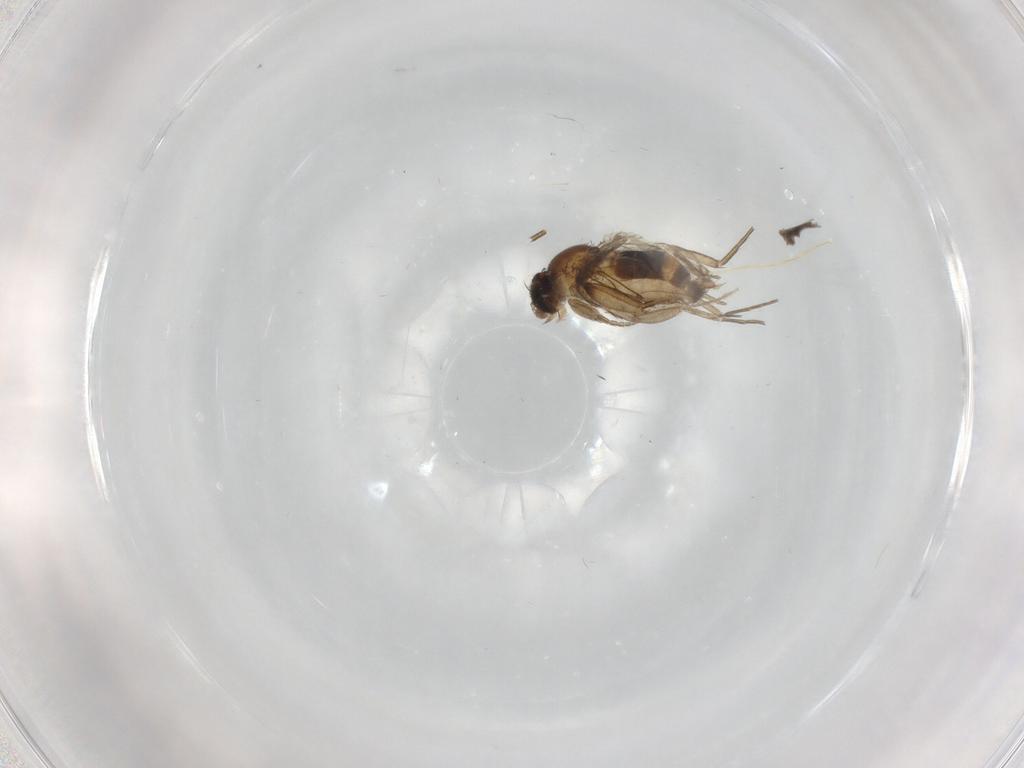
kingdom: Animalia
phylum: Arthropoda
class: Insecta
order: Diptera
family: Phoridae
